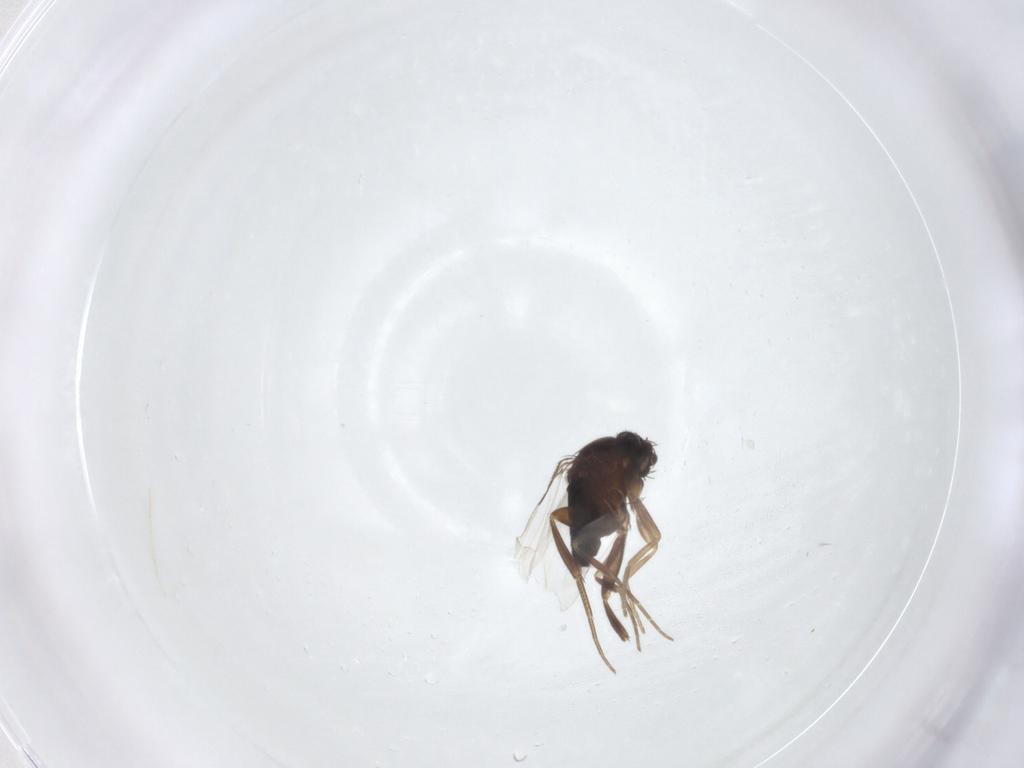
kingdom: Animalia
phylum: Arthropoda
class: Insecta
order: Diptera
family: Phoridae
